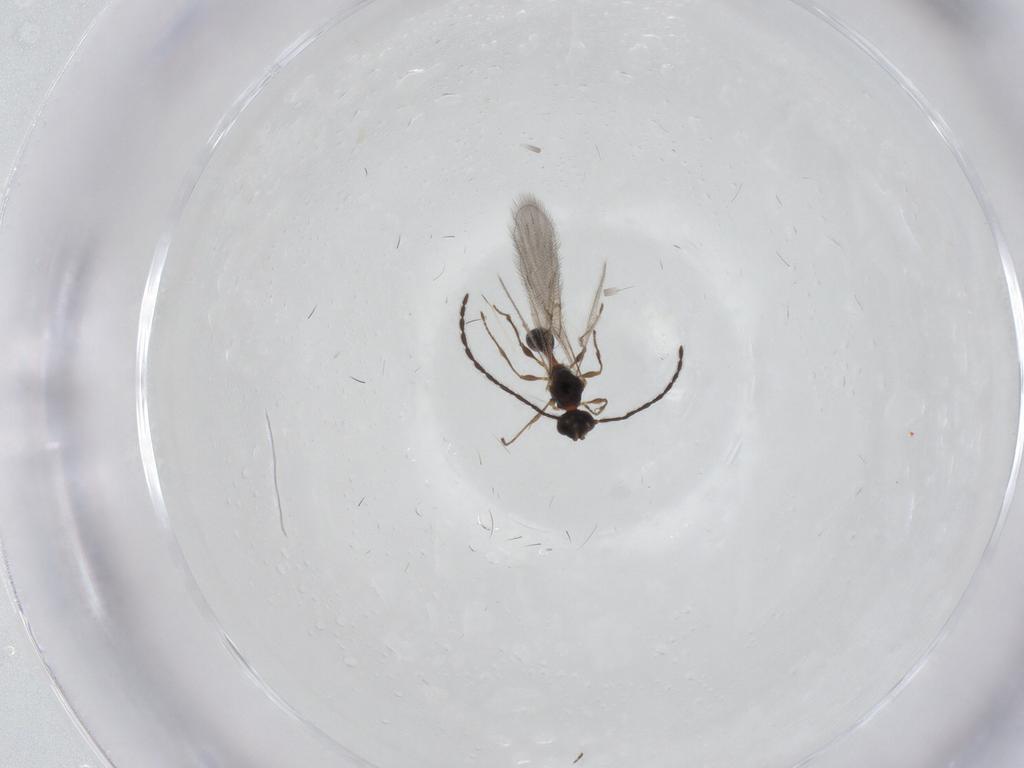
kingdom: Animalia
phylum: Arthropoda
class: Insecta
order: Hymenoptera
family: Diapriidae
